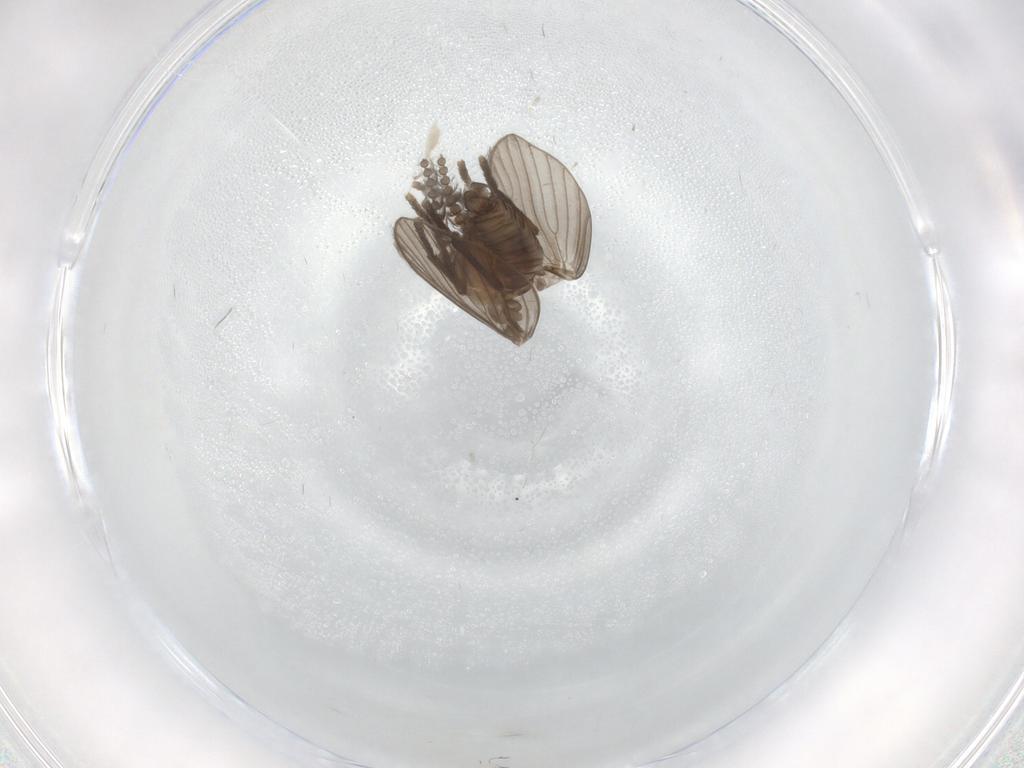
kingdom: Animalia
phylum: Arthropoda
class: Insecta
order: Diptera
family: Psychodidae
